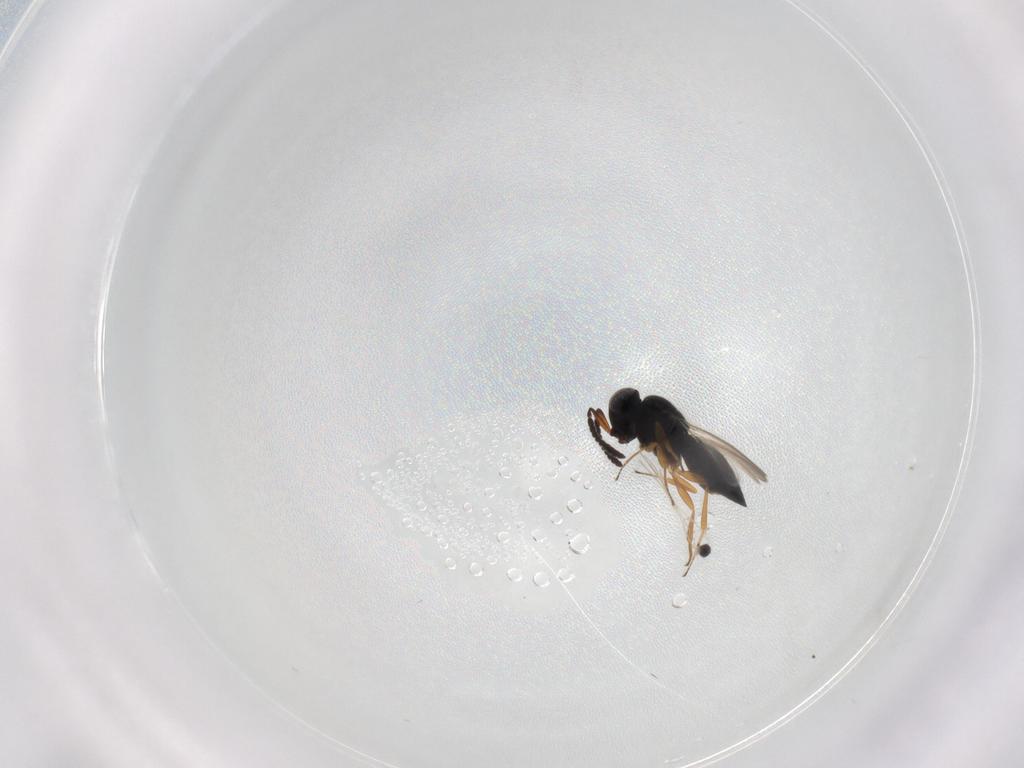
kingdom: Animalia
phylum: Arthropoda
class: Insecta
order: Hymenoptera
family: Scelionidae
